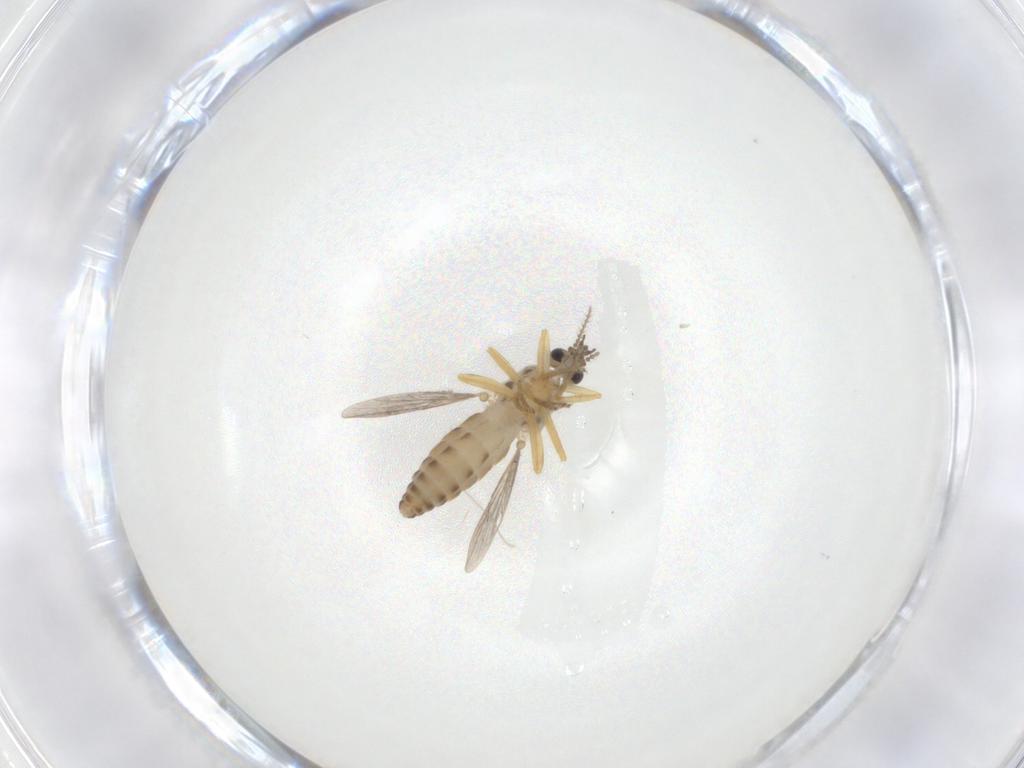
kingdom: Animalia
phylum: Arthropoda
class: Insecta
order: Diptera
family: Ceratopogonidae
